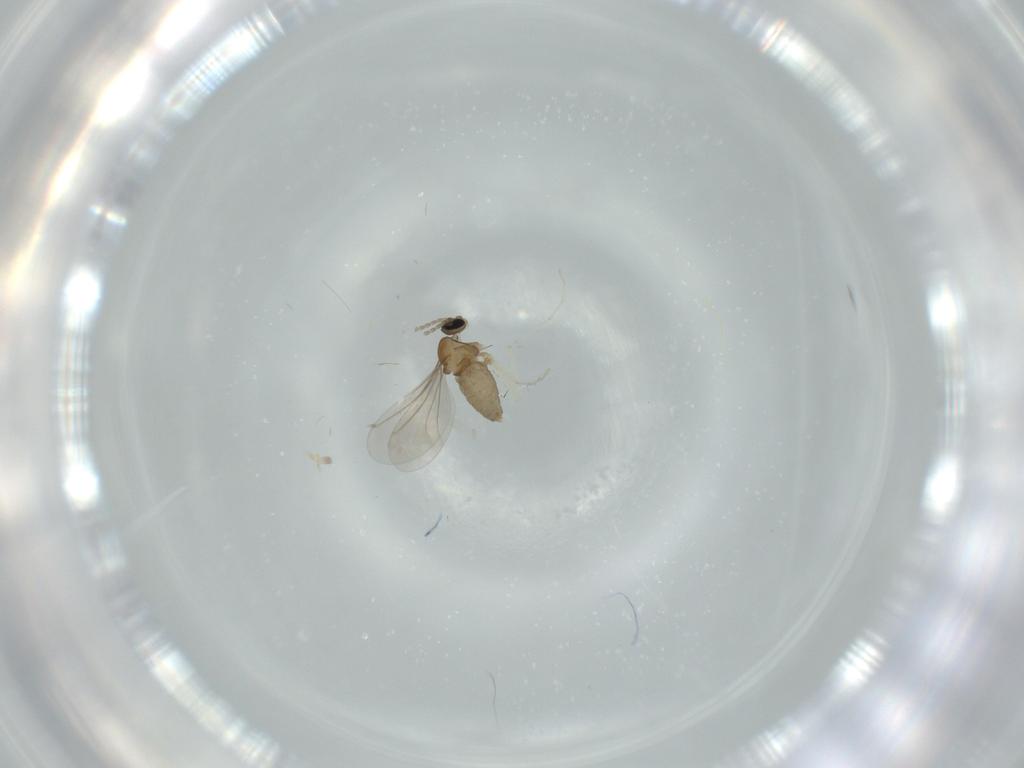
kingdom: Animalia
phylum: Arthropoda
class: Insecta
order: Diptera
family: Cecidomyiidae
